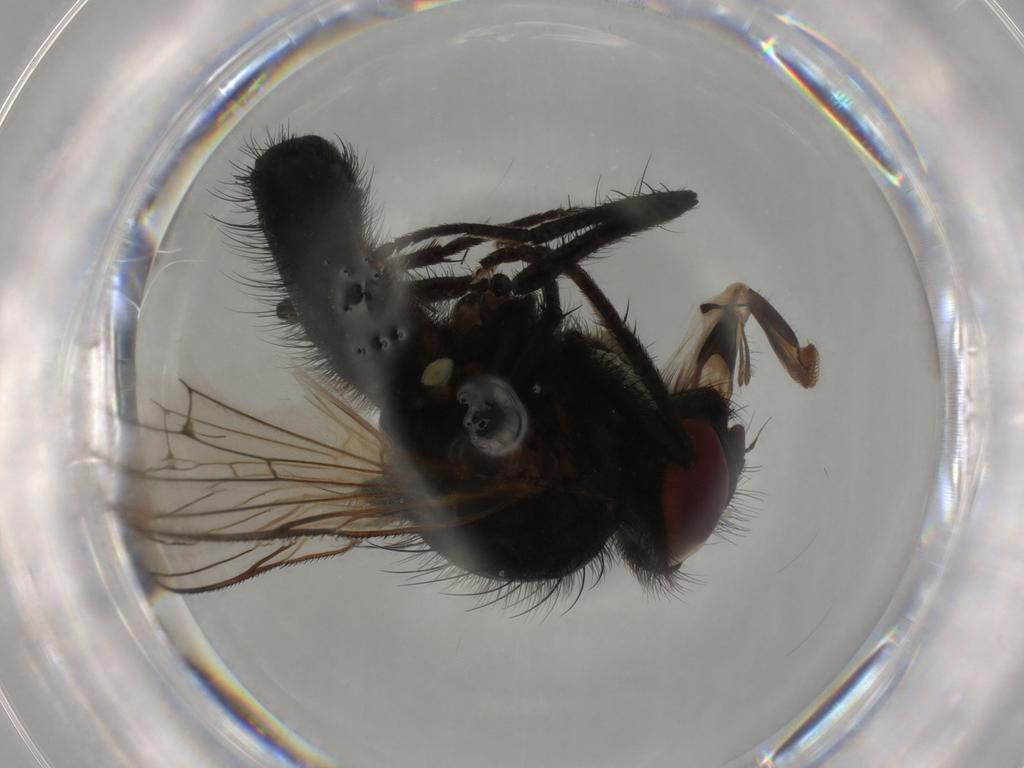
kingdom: Animalia
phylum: Arthropoda
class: Insecta
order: Diptera
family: Anthomyiidae
